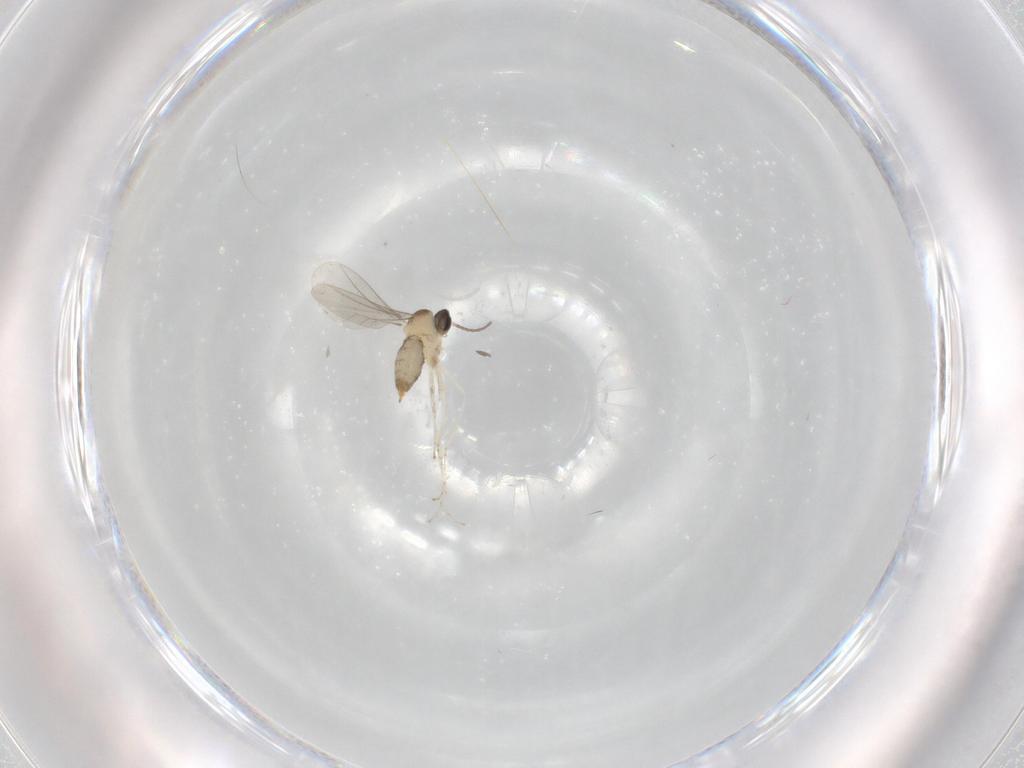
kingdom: Animalia
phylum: Arthropoda
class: Insecta
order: Diptera
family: Cecidomyiidae
